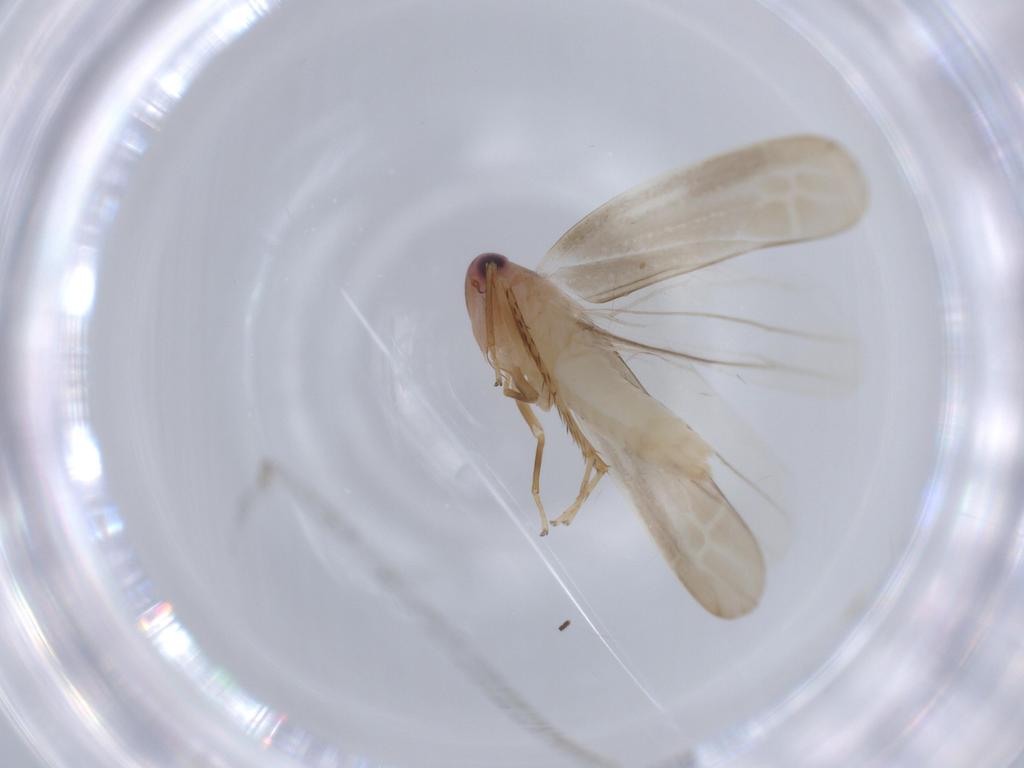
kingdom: Animalia
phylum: Arthropoda
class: Insecta
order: Hemiptera
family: Cicadellidae
